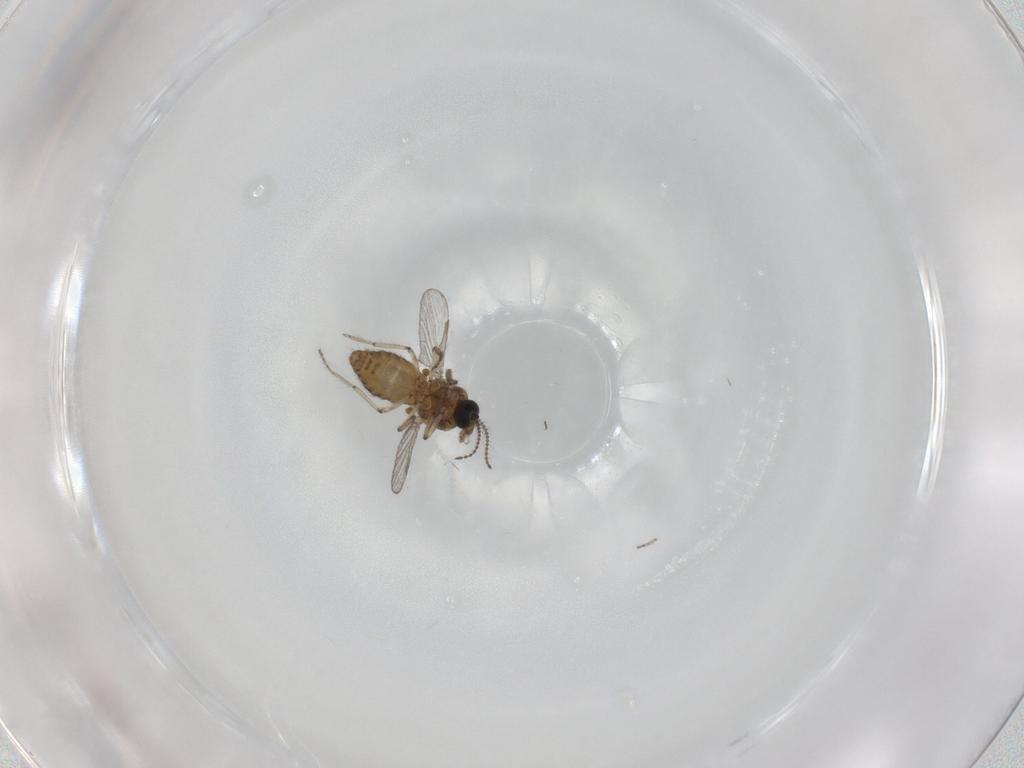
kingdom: Animalia
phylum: Arthropoda
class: Insecta
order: Diptera
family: Ceratopogonidae
